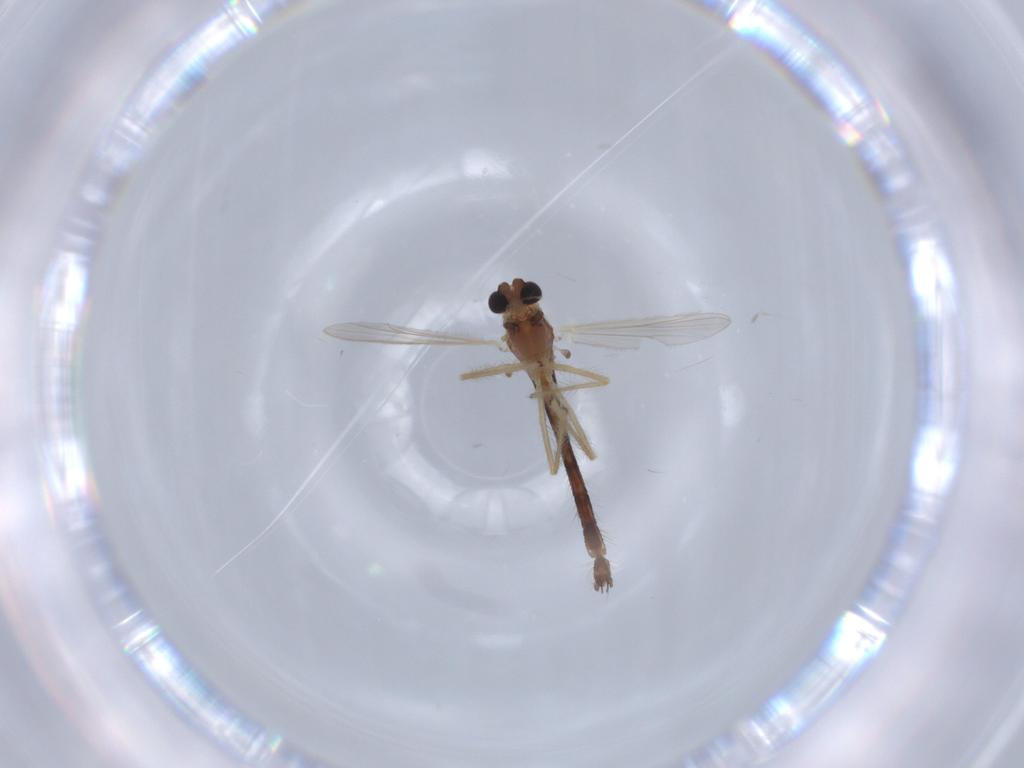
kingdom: Animalia
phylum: Arthropoda
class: Insecta
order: Diptera
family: Chironomidae
